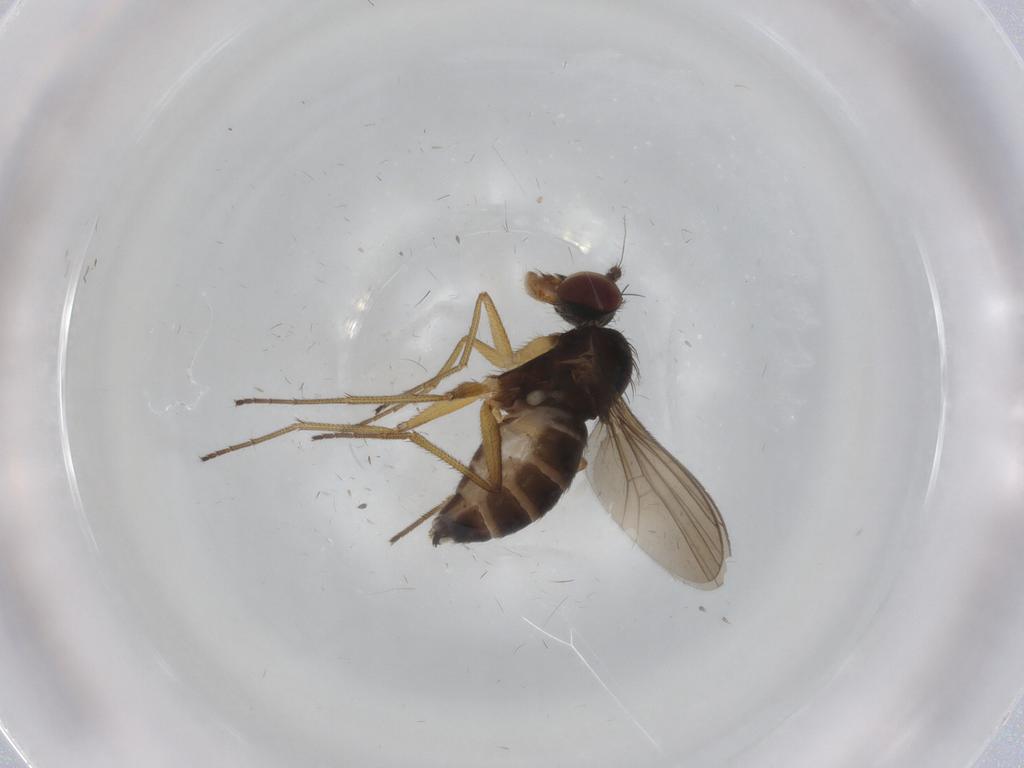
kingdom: Animalia
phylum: Arthropoda
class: Insecta
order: Diptera
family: Dolichopodidae
